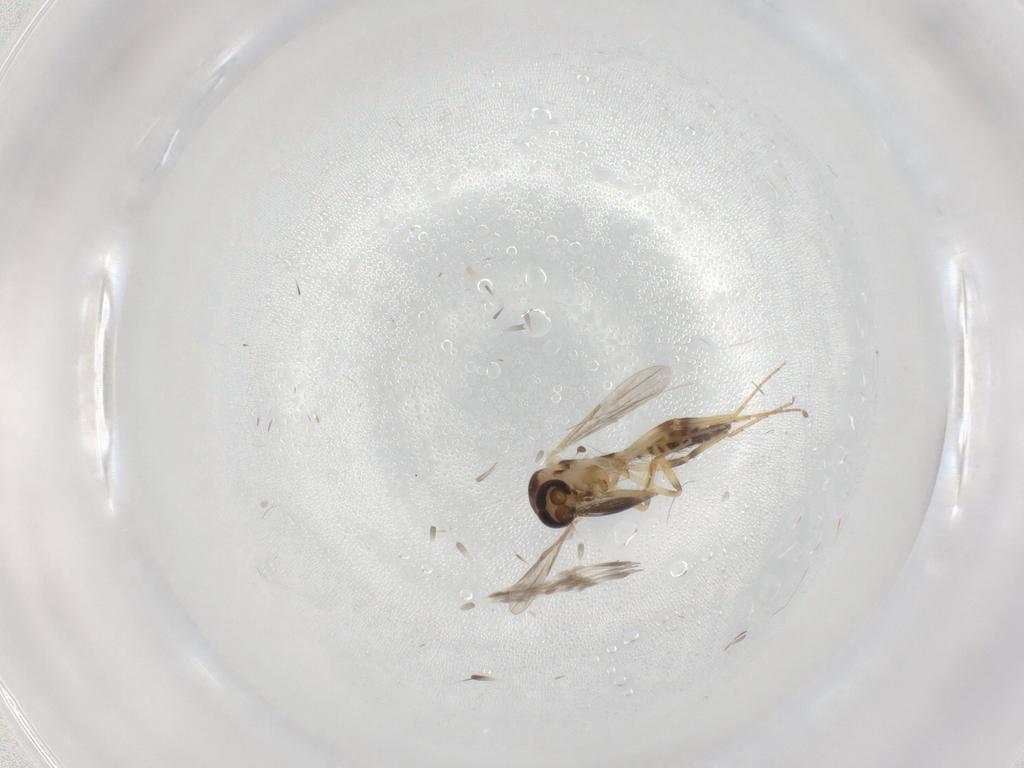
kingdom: Animalia
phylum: Arthropoda
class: Insecta
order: Diptera
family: Ceratopogonidae
